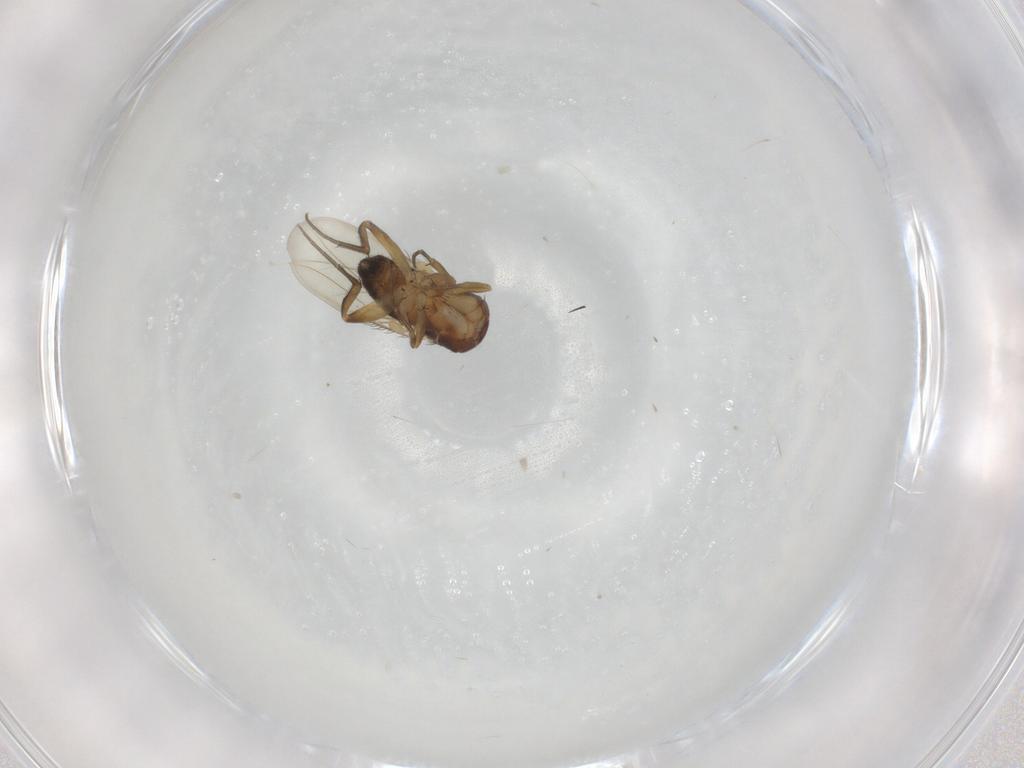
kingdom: Animalia
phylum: Arthropoda
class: Insecta
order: Diptera
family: Phoridae
